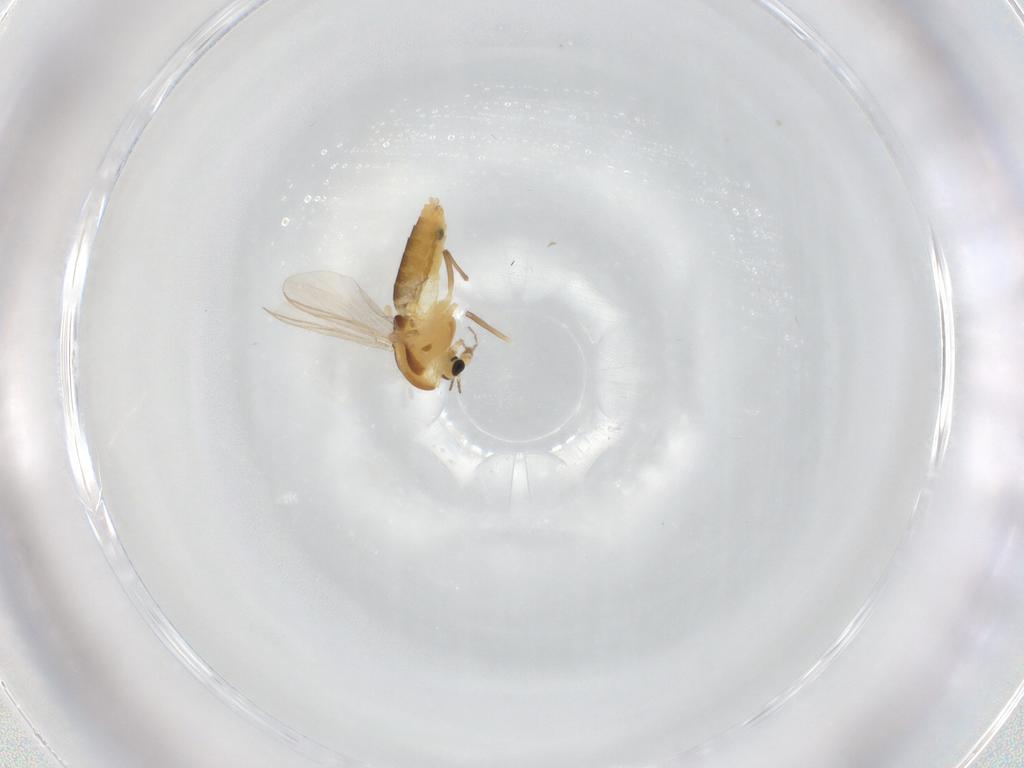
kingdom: Animalia
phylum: Arthropoda
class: Insecta
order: Diptera
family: Chironomidae
